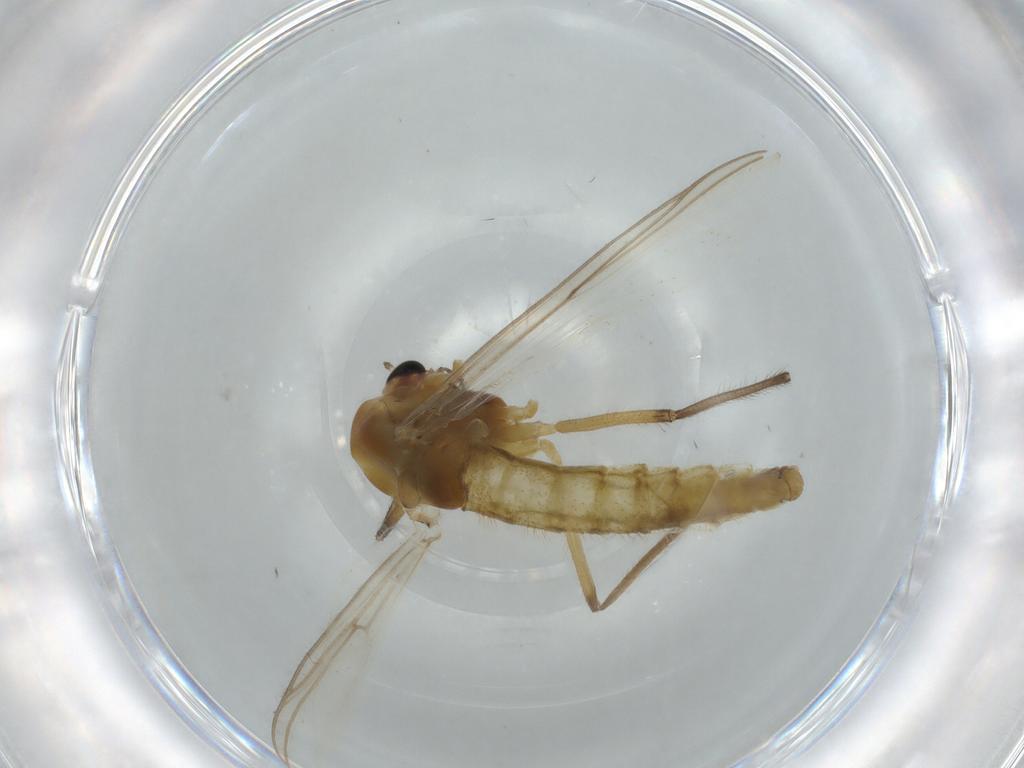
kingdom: Animalia
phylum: Arthropoda
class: Insecta
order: Diptera
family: Chironomidae
